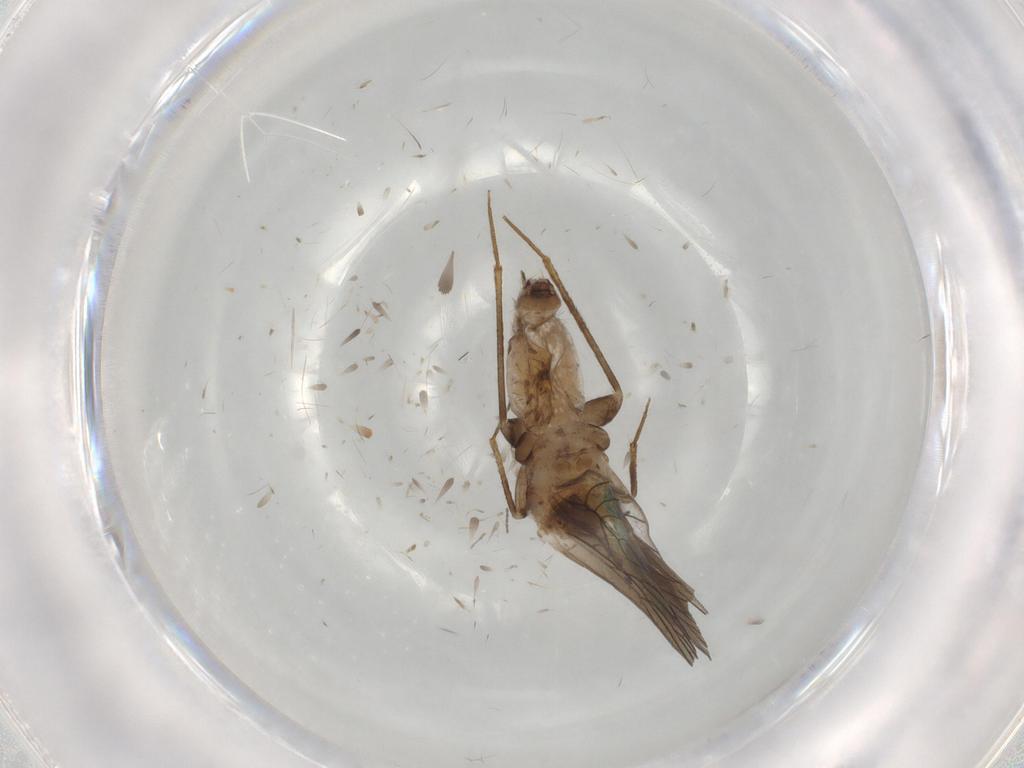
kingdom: Animalia
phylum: Arthropoda
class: Insecta
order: Psocodea
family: Lepidopsocidae
